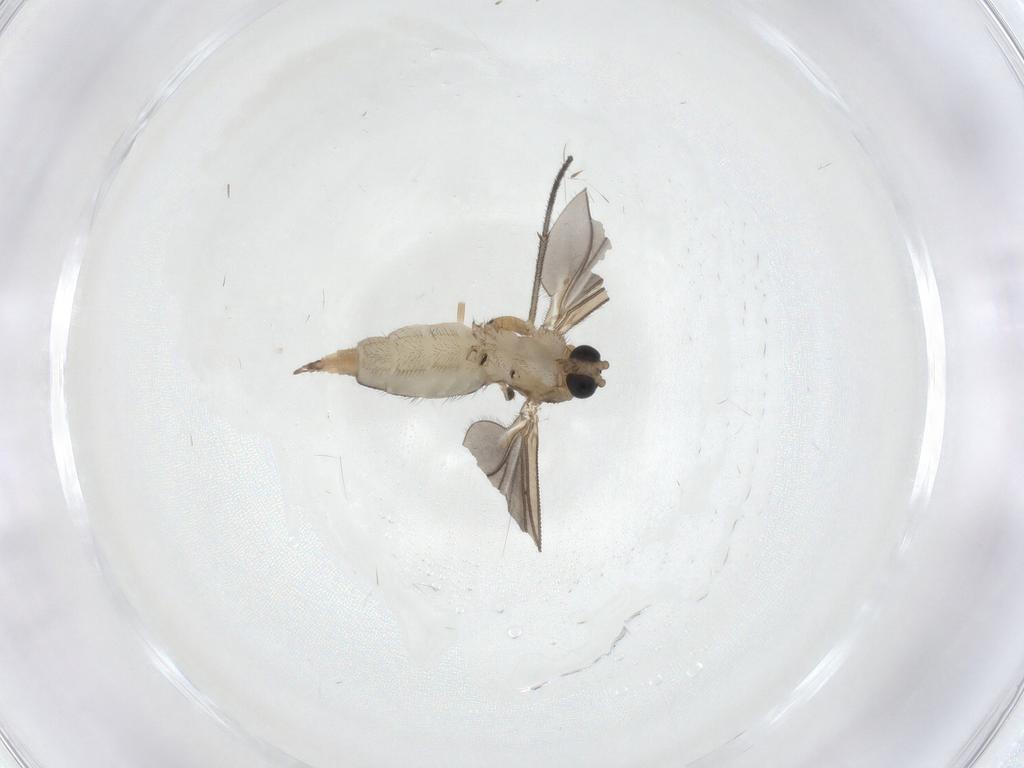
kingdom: Animalia
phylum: Arthropoda
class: Insecta
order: Diptera
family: Sciaridae
